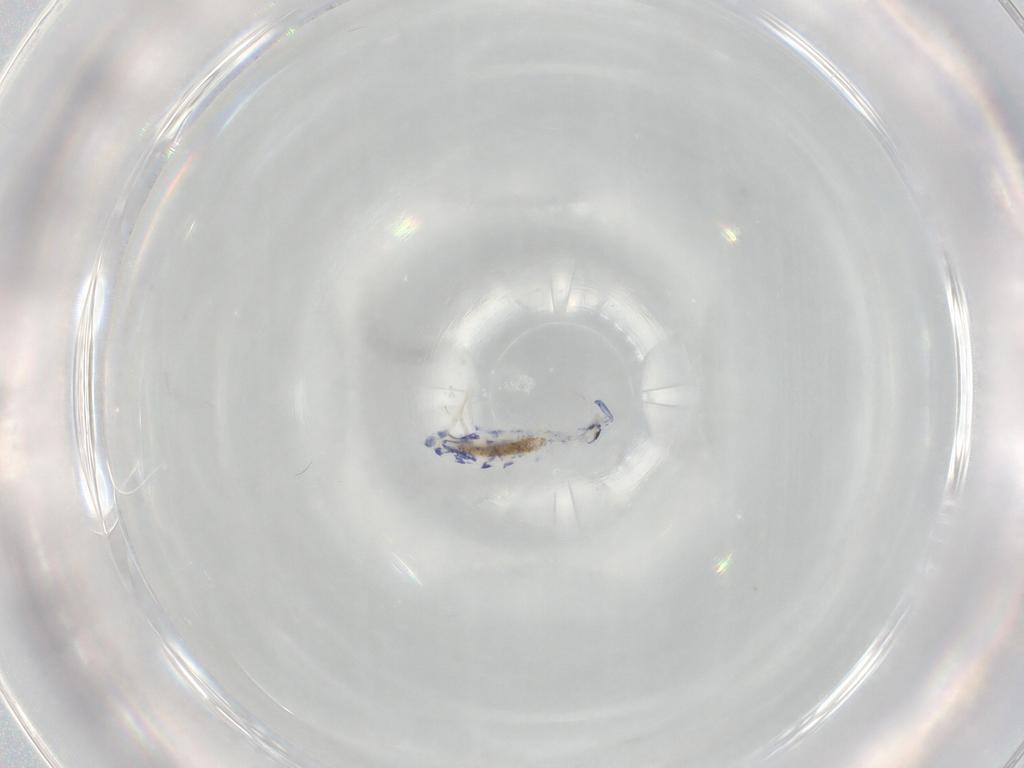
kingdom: Animalia
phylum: Arthropoda
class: Collembola
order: Entomobryomorpha
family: Entomobryidae
